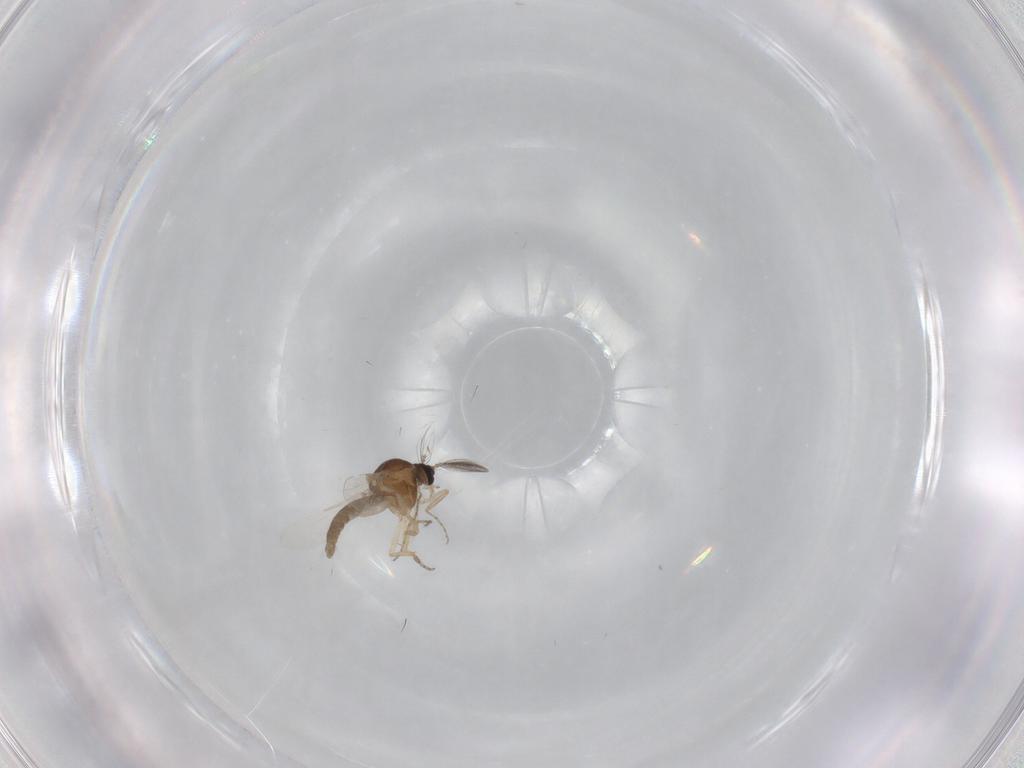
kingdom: Animalia
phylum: Arthropoda
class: Insecta
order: Diptera
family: Ceratopogonidae
